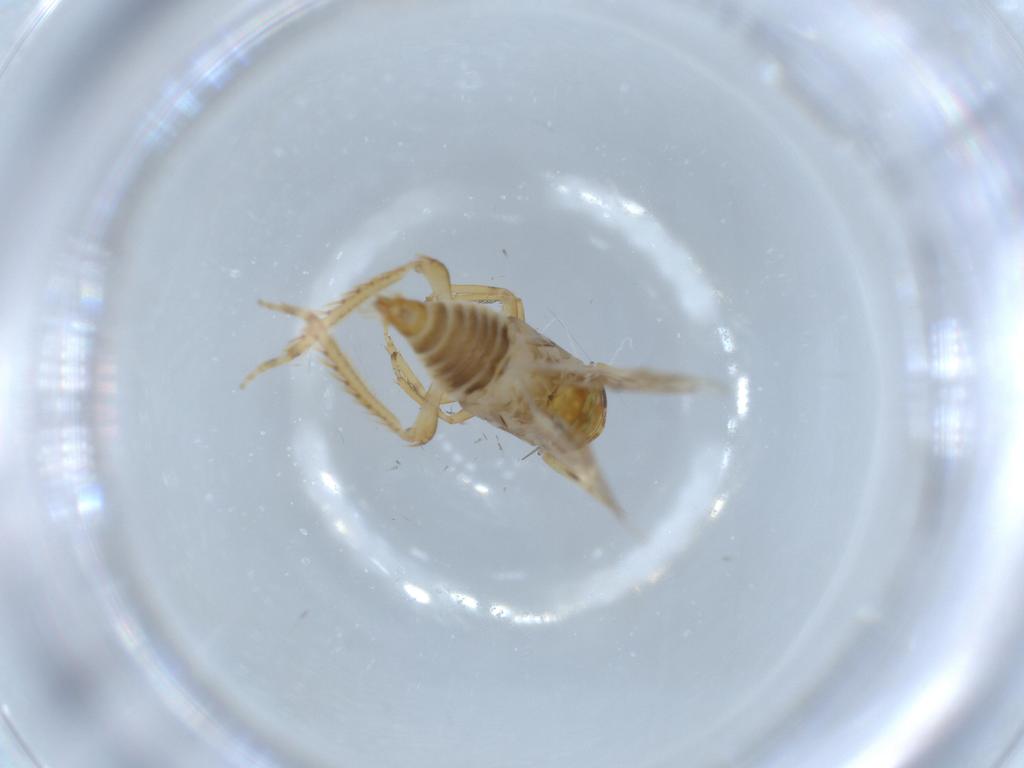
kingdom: Animalia
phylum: Arthropoda
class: Insecta
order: Hemiptera
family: Cicadellidae
